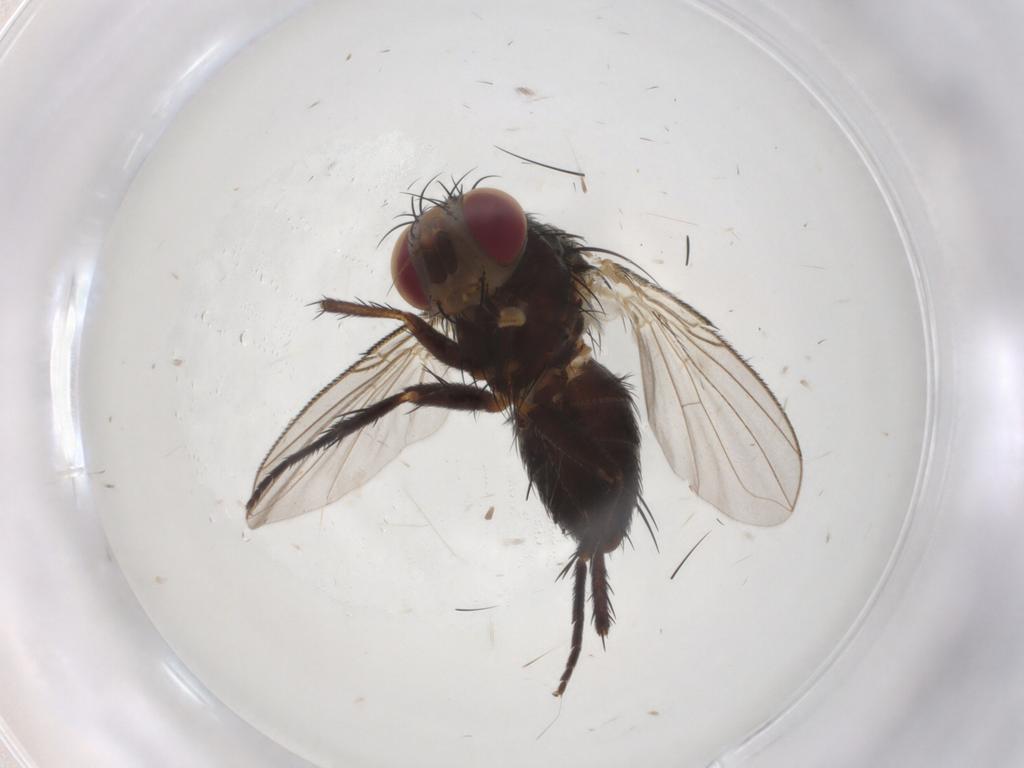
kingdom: Animalia
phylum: Arthropoda
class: Insecta
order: Diptera
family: Tachinidae
